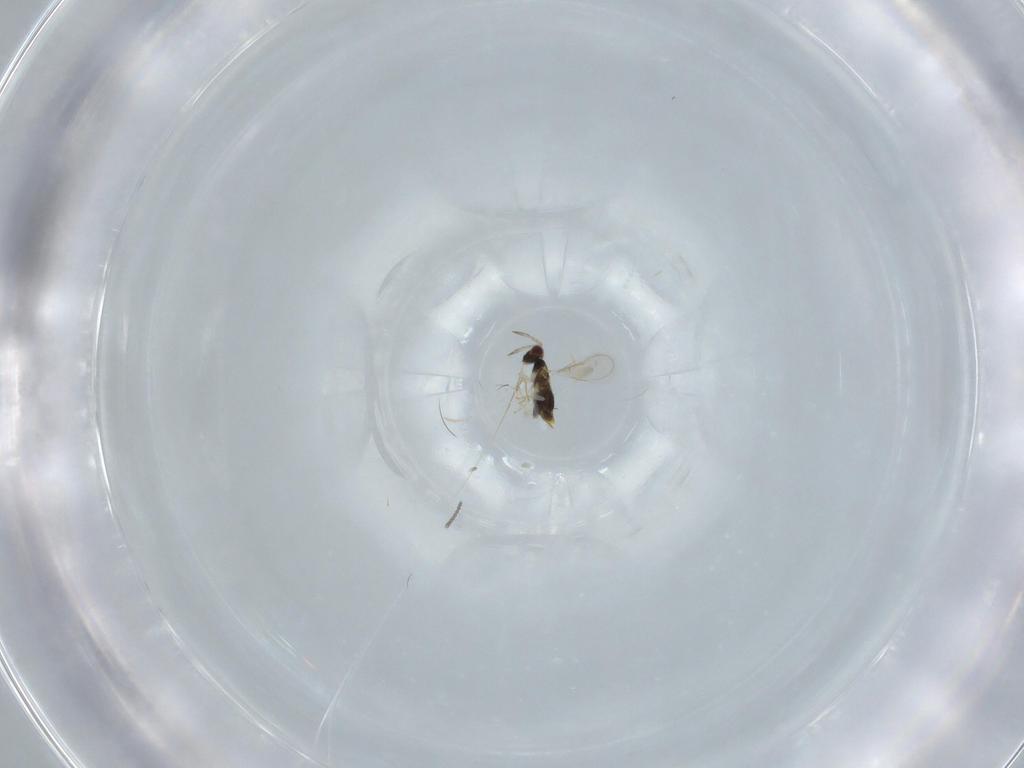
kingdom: Animalia
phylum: Arthropoda
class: Insecta
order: Hymenoptera
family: Aphelinidae
